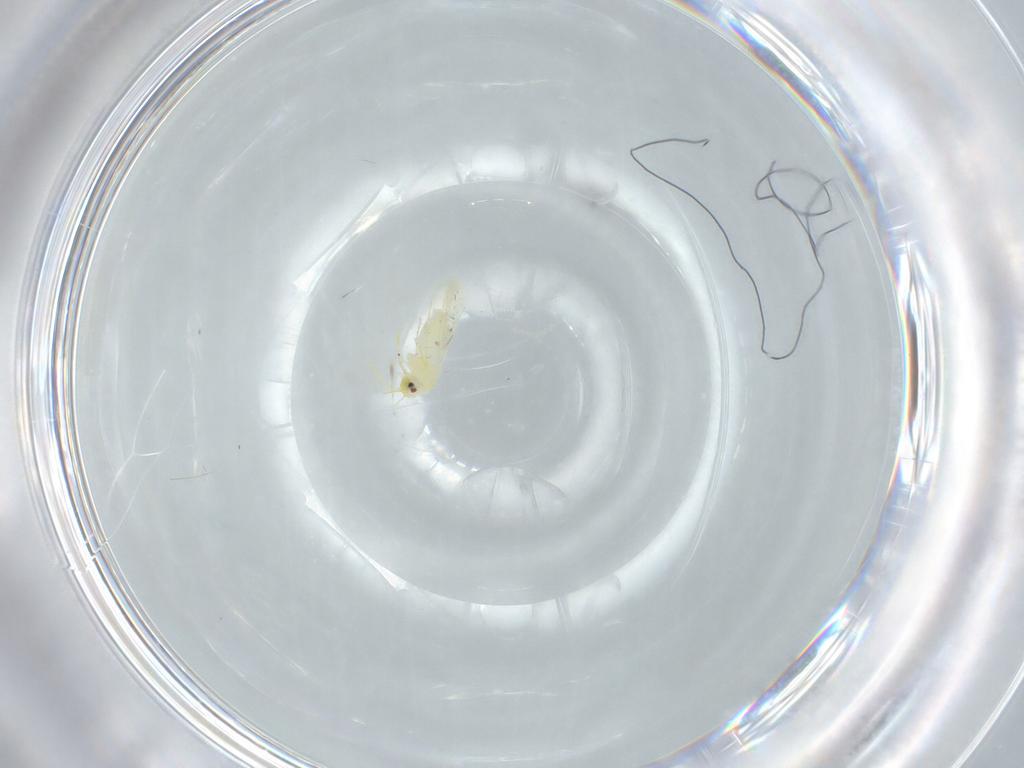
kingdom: Animalia
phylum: Arthropoda
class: Insecta
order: Hemiptera
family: Aleyrodidae
